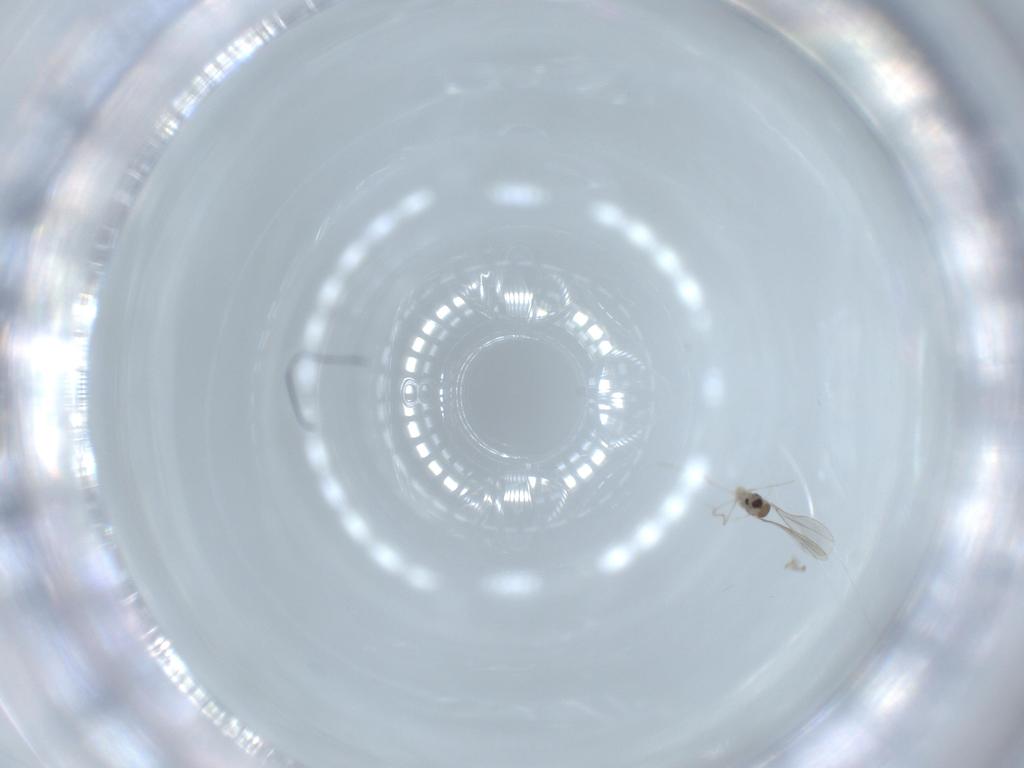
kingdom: Animalia
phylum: Arthropoda
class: Insecta
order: Diptera
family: Cecidomyiidae
